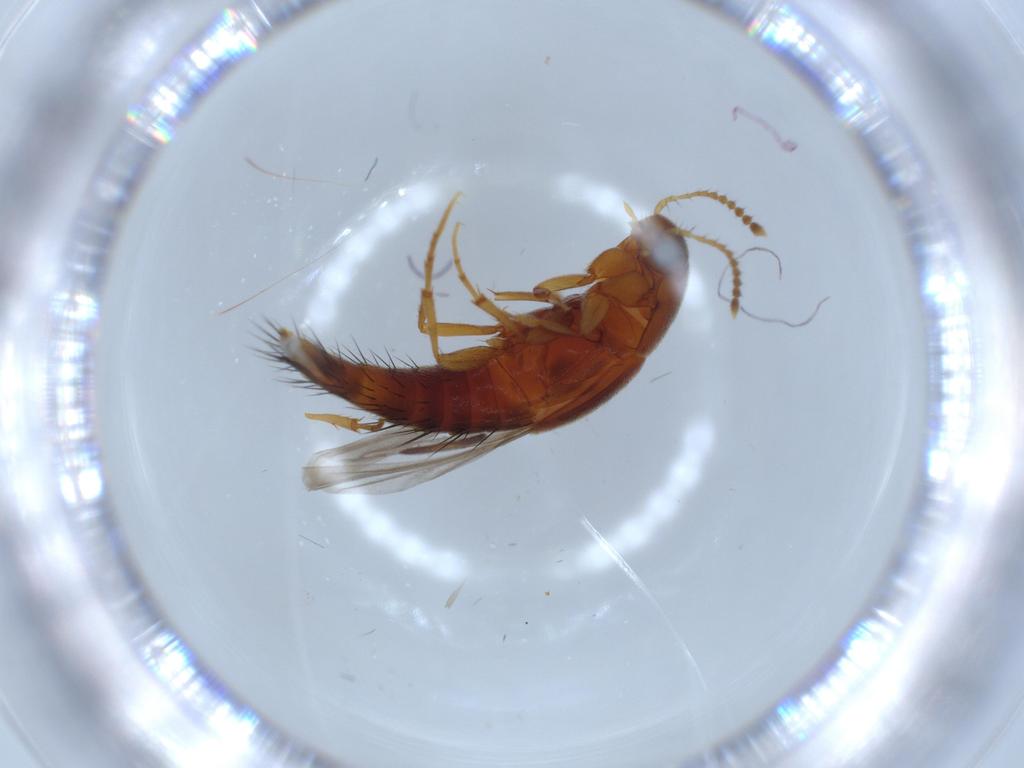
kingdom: Animalia
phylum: Arthropoda
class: Insecta
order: Coleoptera
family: Staphylinidae
